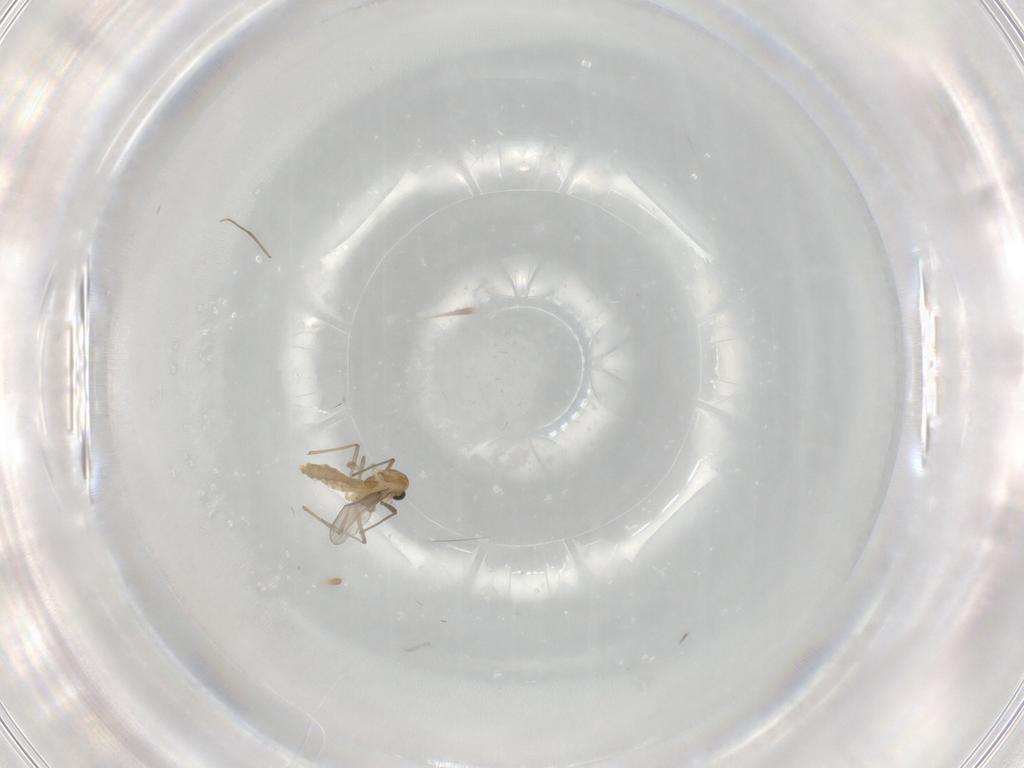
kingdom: Animalia
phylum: Arthropoda
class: Insecta
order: Diptera
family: Chironomidae
